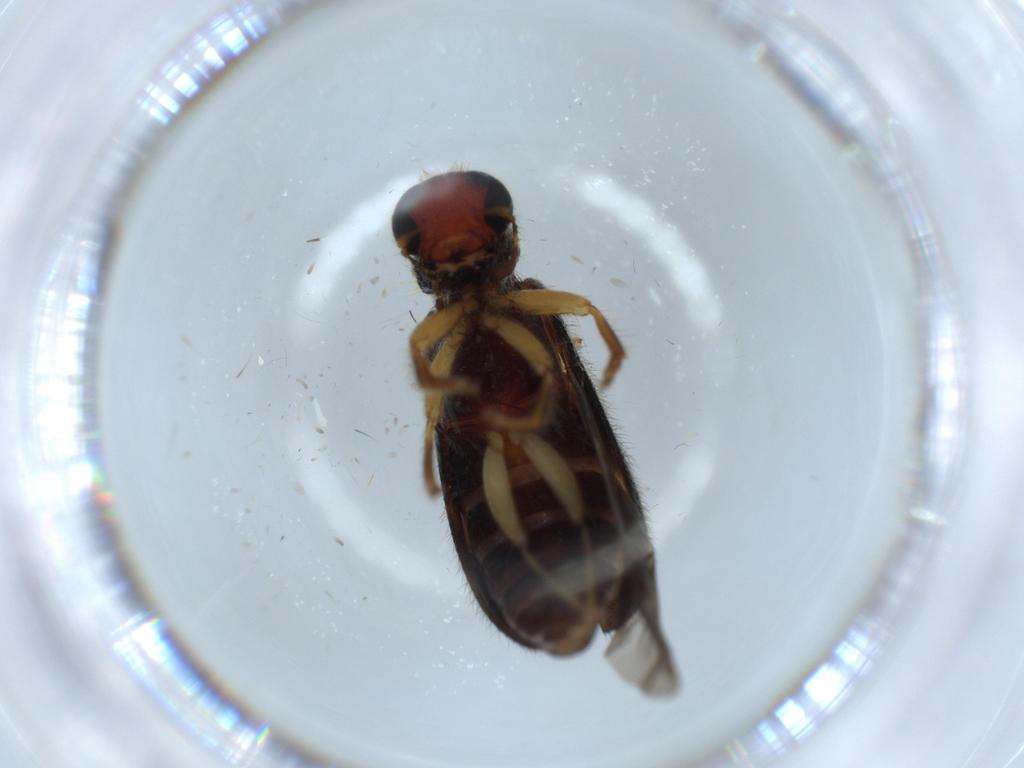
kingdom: Animalia
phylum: Arthropoda
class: Insecta
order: Coleoptera
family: Cleridae
